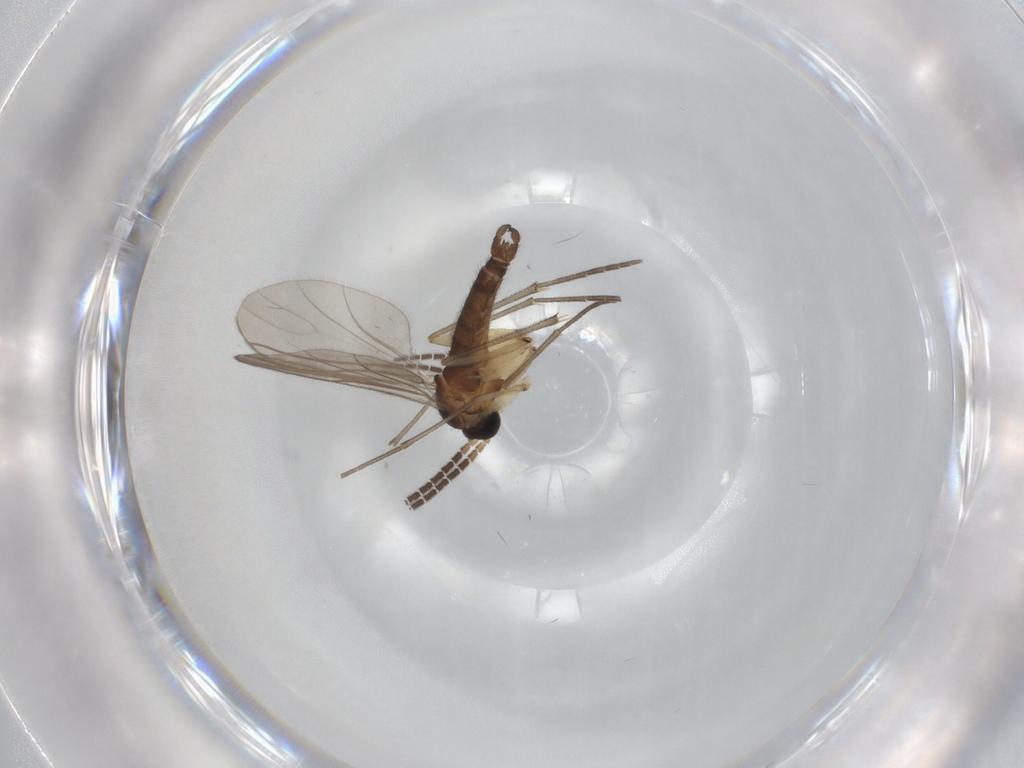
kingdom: Animalia
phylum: Arthropoda
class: Insecta
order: Diptera
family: Sciaridae
